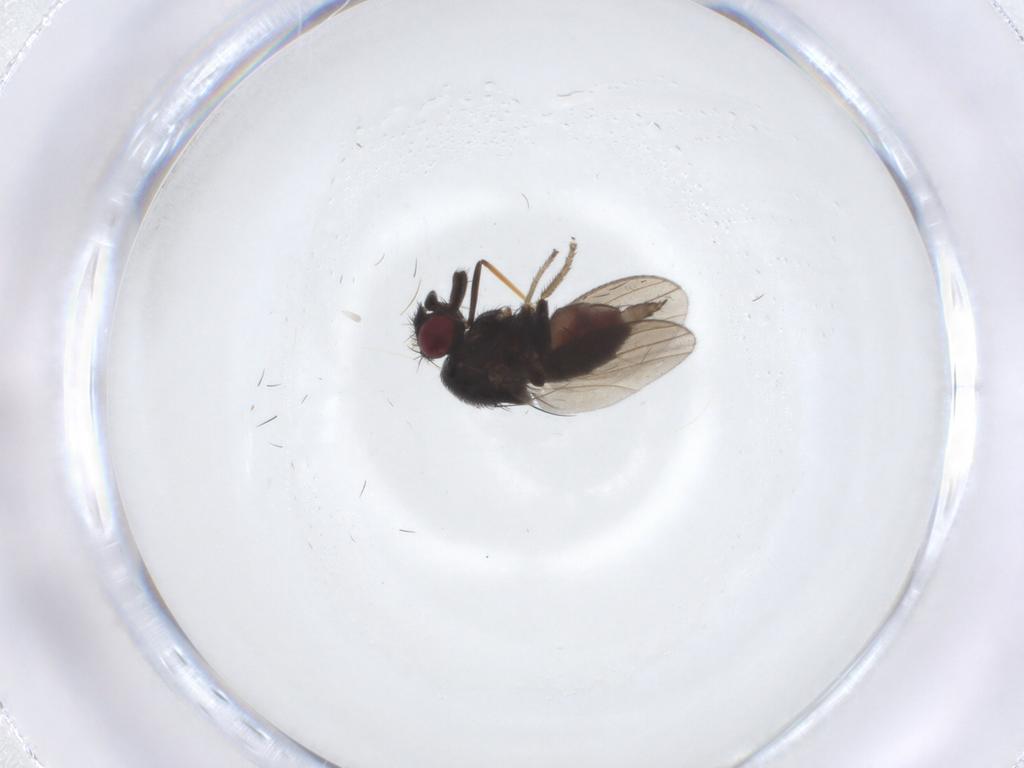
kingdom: Animalia
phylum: Arthropoda
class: Insecta
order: Diptera
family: Milichiidae
